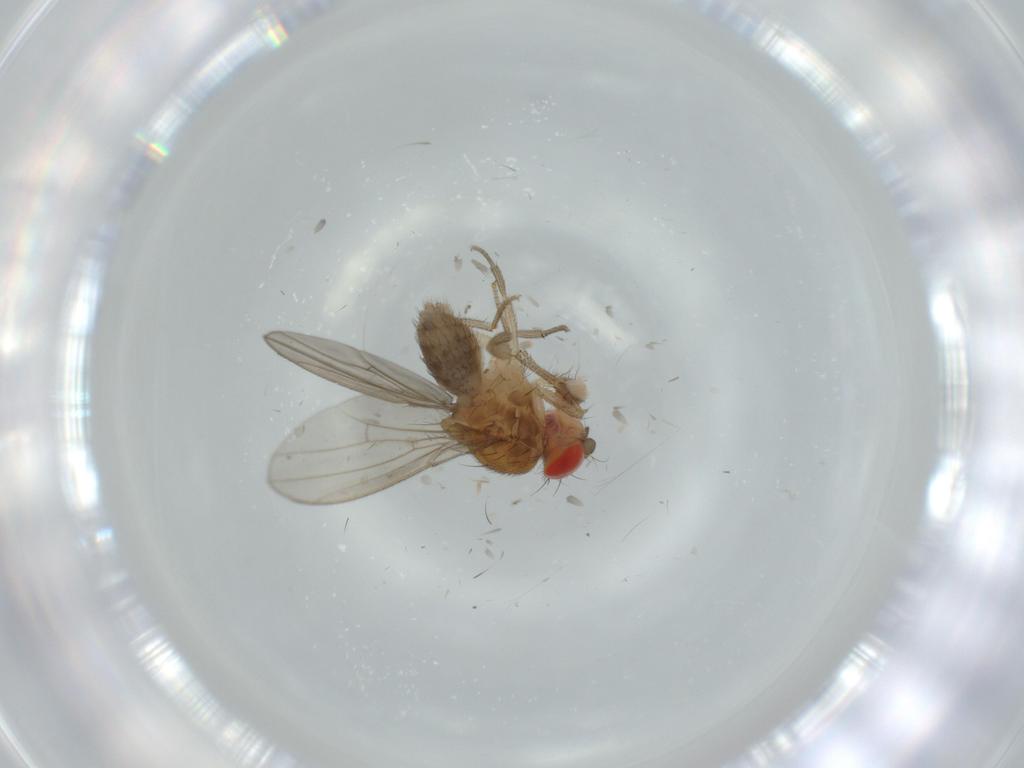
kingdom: Animalia
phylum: Arthropoda
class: Insecta
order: Diptera
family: Drosophilidae
